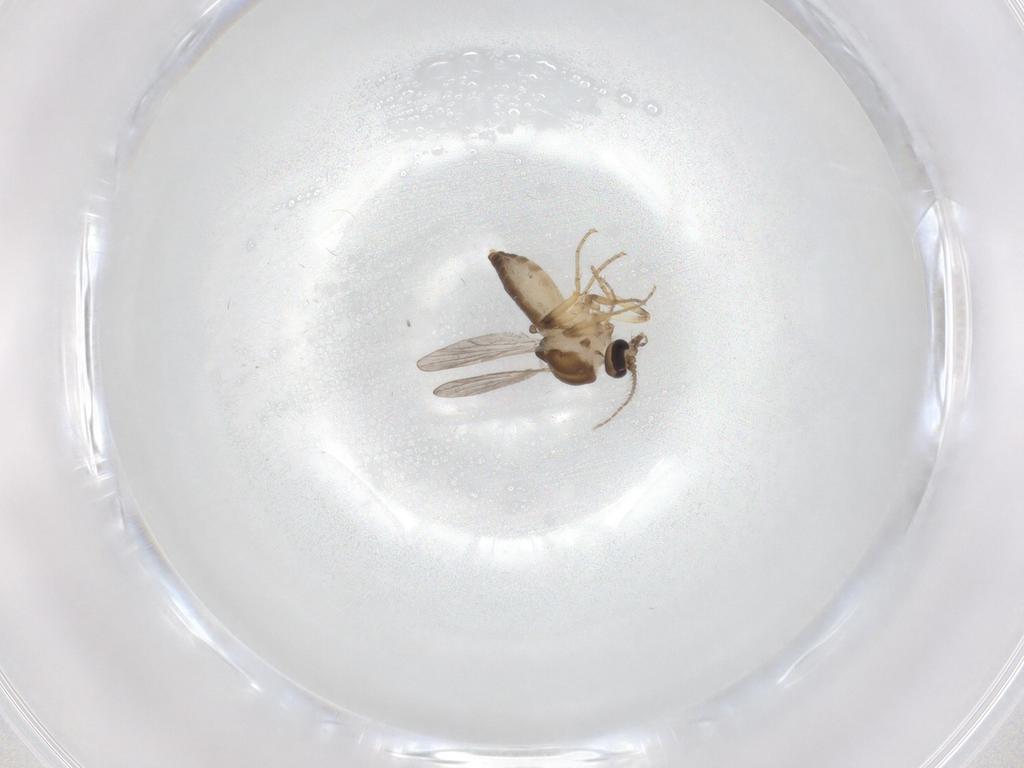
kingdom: Animalia
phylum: Arthropoda
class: Insecta
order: Diptera
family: Ceratopogonidae
